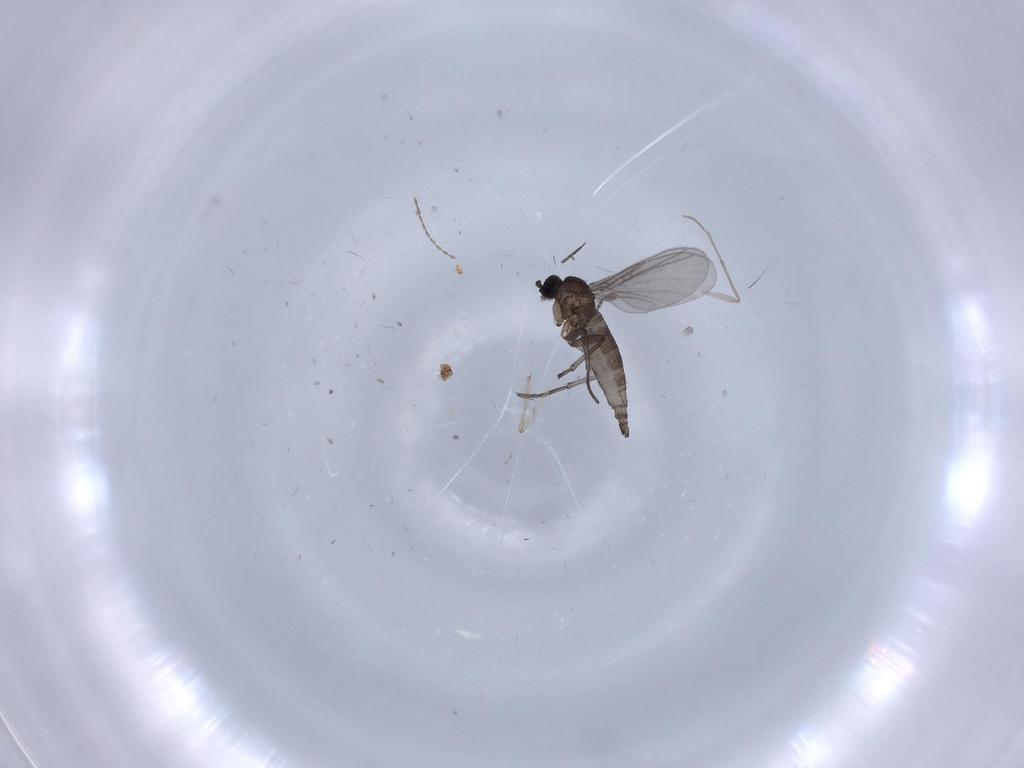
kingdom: Animalia
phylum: Arthropoda
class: Insecta
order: Diptera
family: Chironomidae
